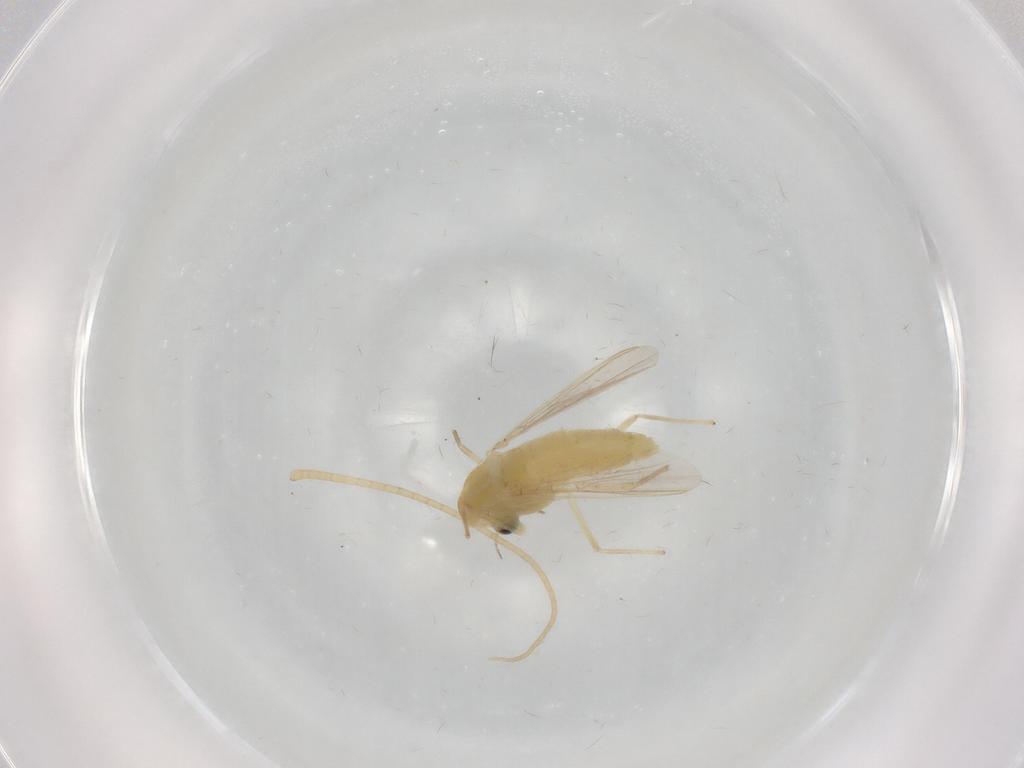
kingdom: Animalia
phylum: Arthropoda
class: Insecta
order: Diptera
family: Chironomidae
